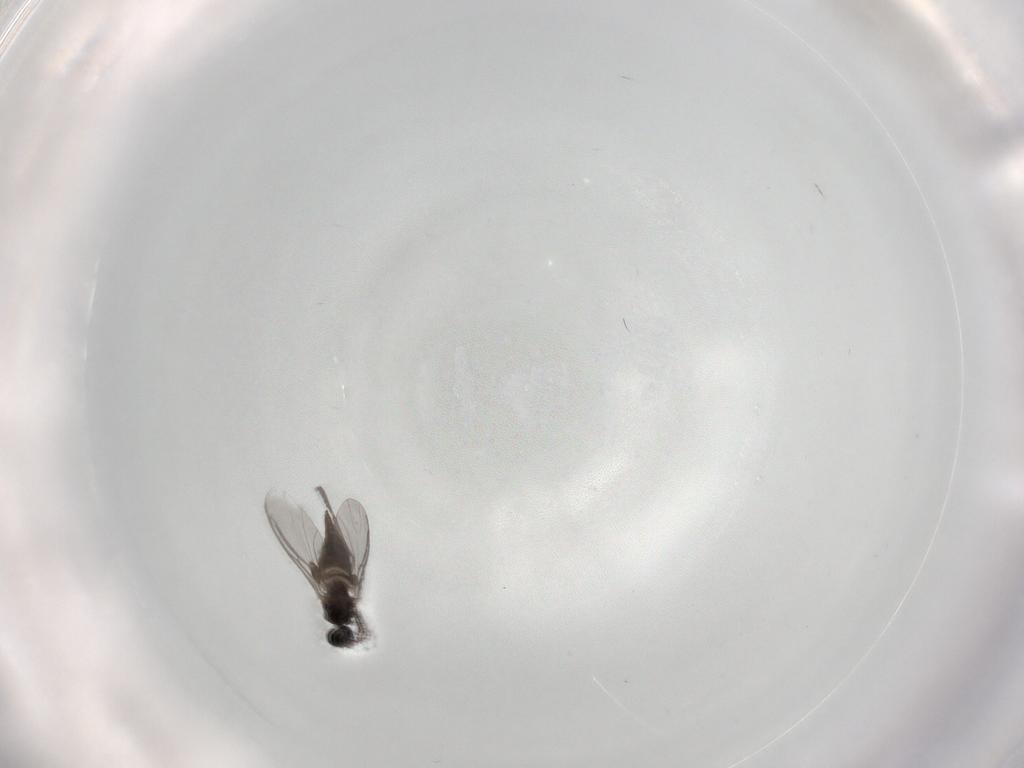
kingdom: Animalia
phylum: Arthropoda
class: Insecta
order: Diptera
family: Sciaridae
